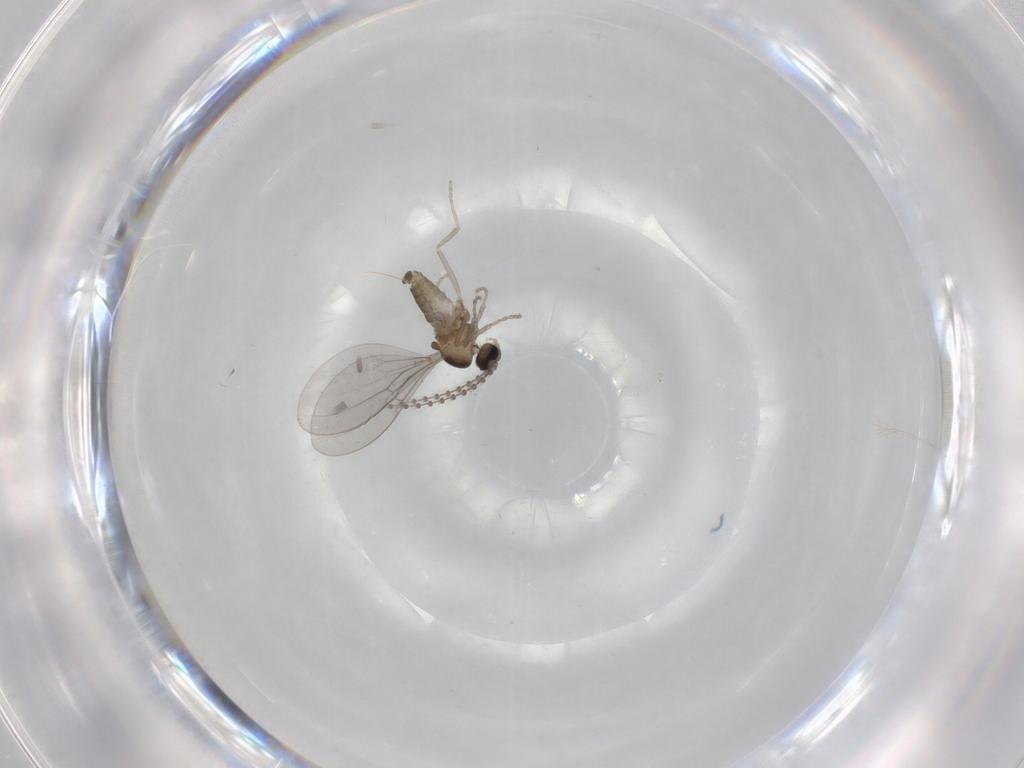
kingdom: Animalia
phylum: Arthropoda
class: Insecta
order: Diptera
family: Cecidomyiidae
